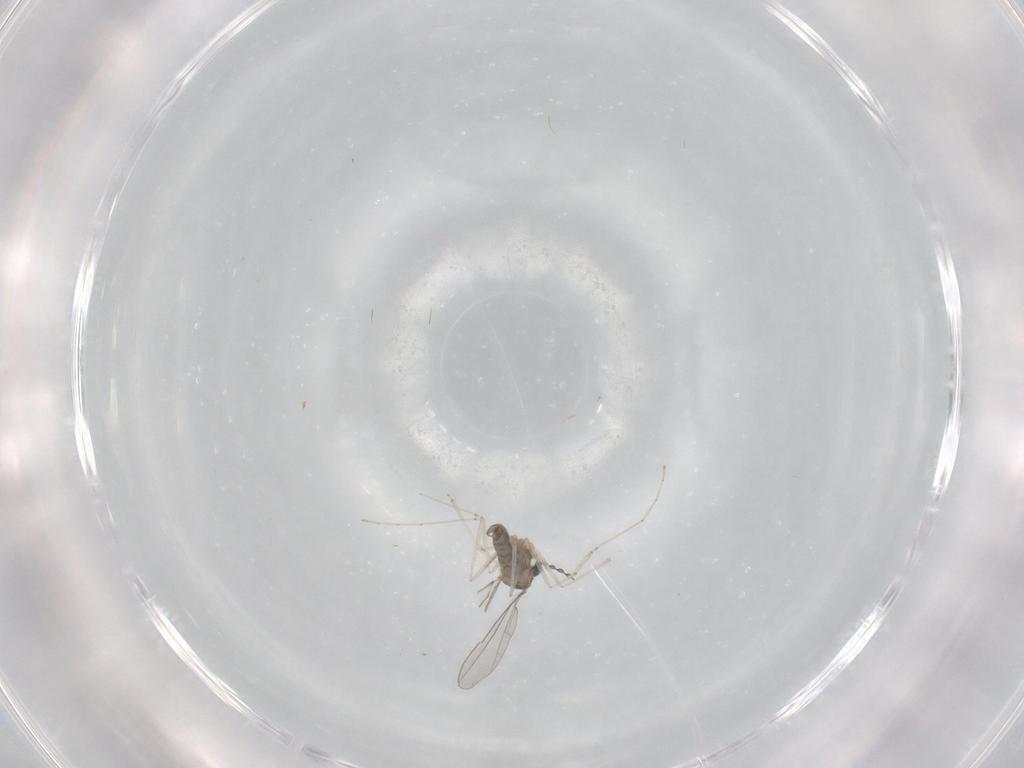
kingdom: Animalia
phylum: Arthropoda
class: Insecta
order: Diptera
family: Ceratopogonidae
